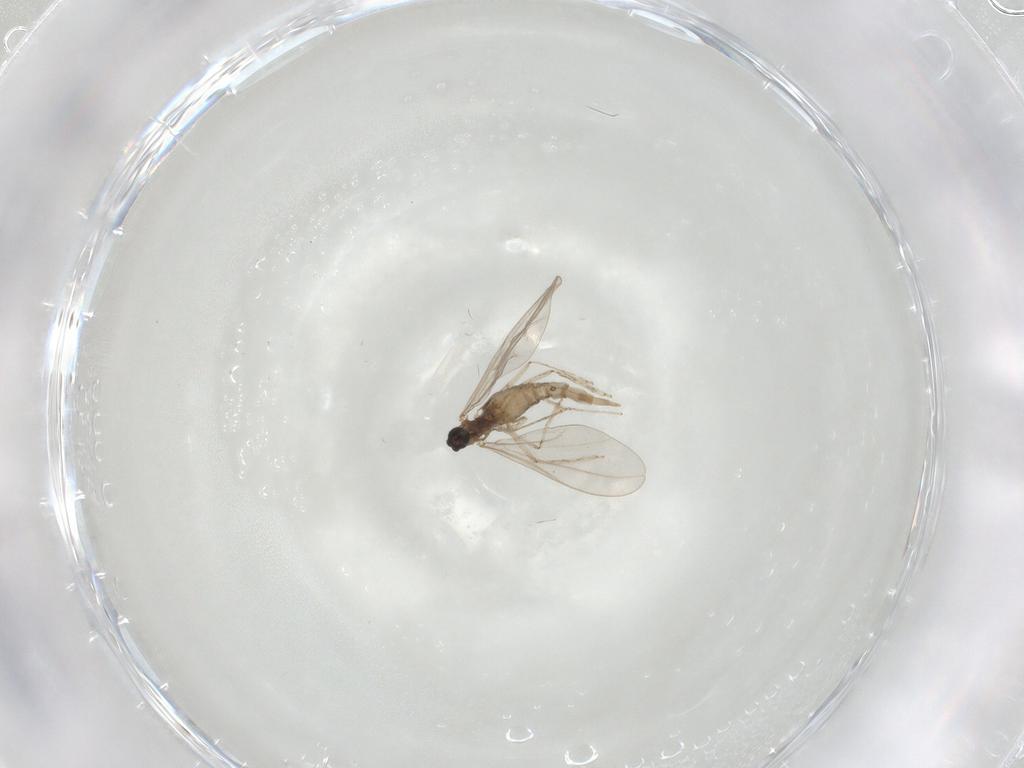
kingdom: Animalia
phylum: Arthropoda
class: Insecta
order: Diptera
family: Cecidomyiidae
